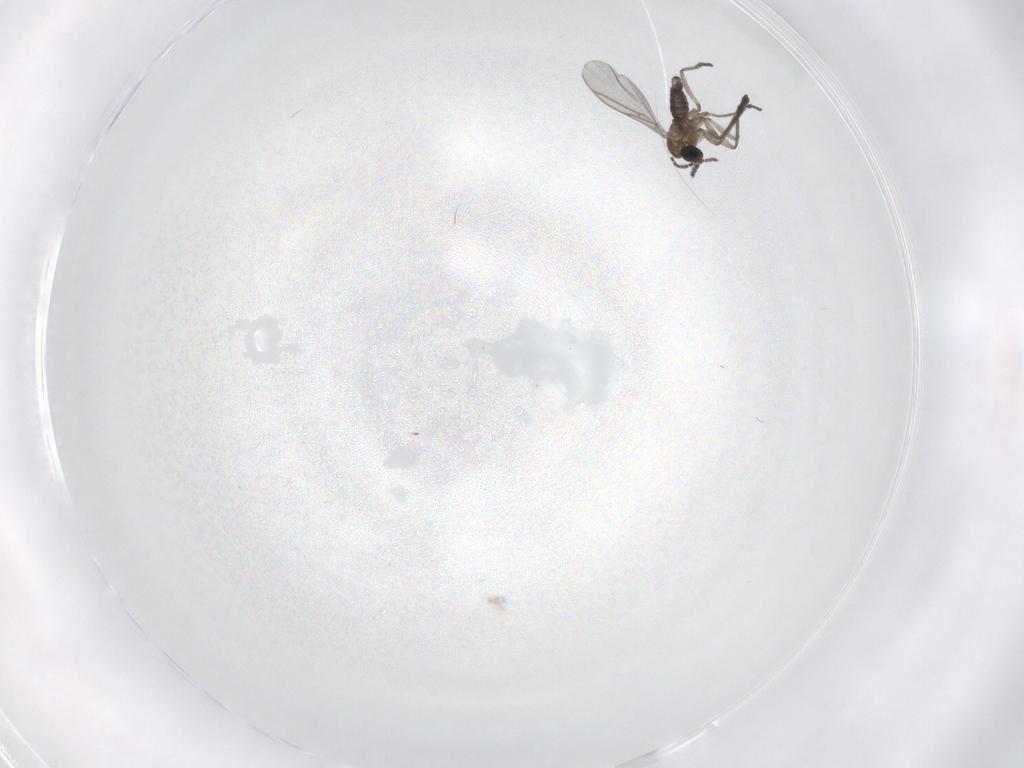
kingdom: Animalia
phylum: Arthropoda
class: Insecta
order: Diptera
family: Sciaridae
